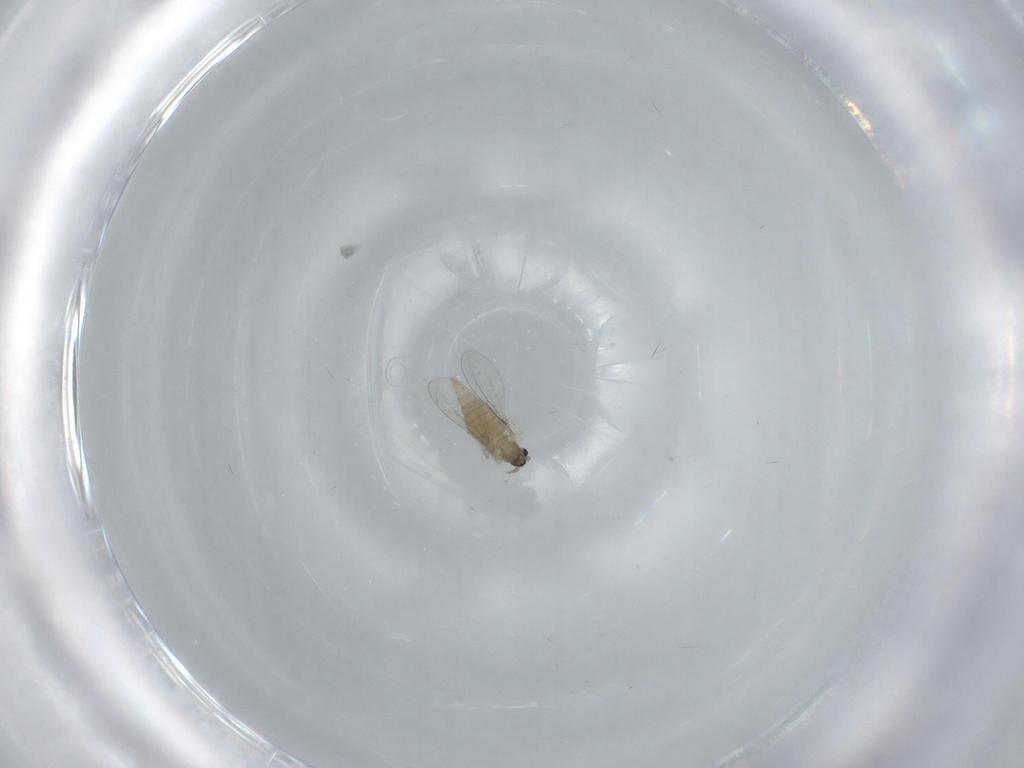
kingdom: Animalia
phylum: Arthropoda
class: Insecta
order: Diptera
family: Cecidomyiidae
